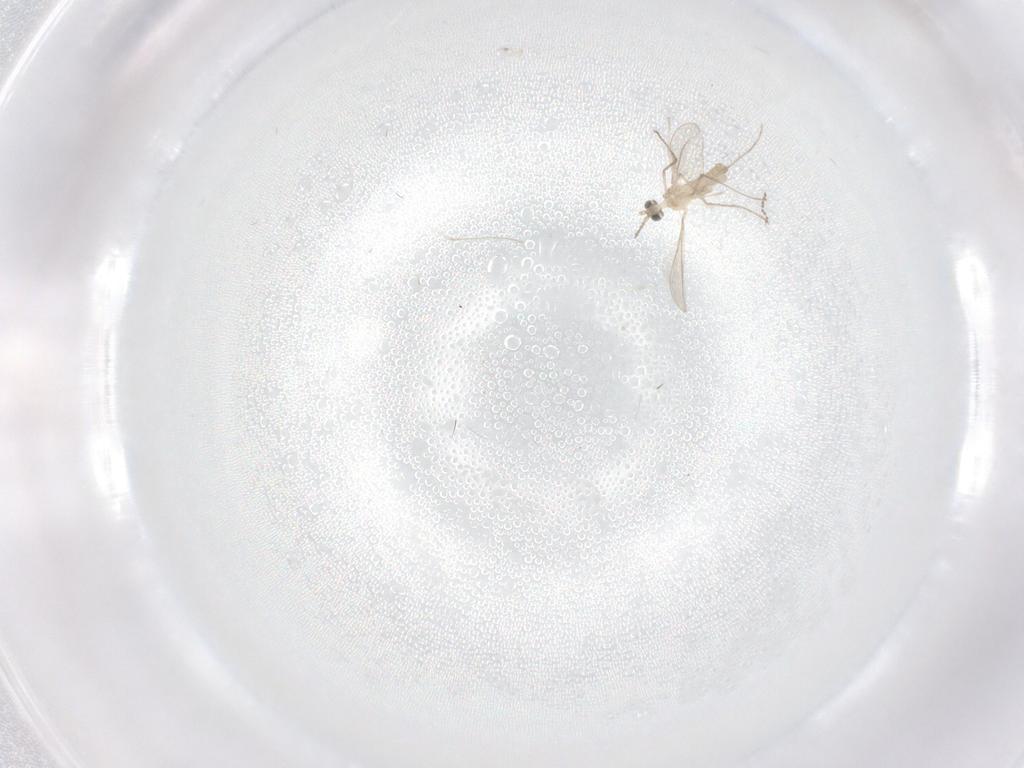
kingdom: Animalia
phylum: Arthropoda
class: Insecta
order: Diptera
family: Cecidomyiidae
